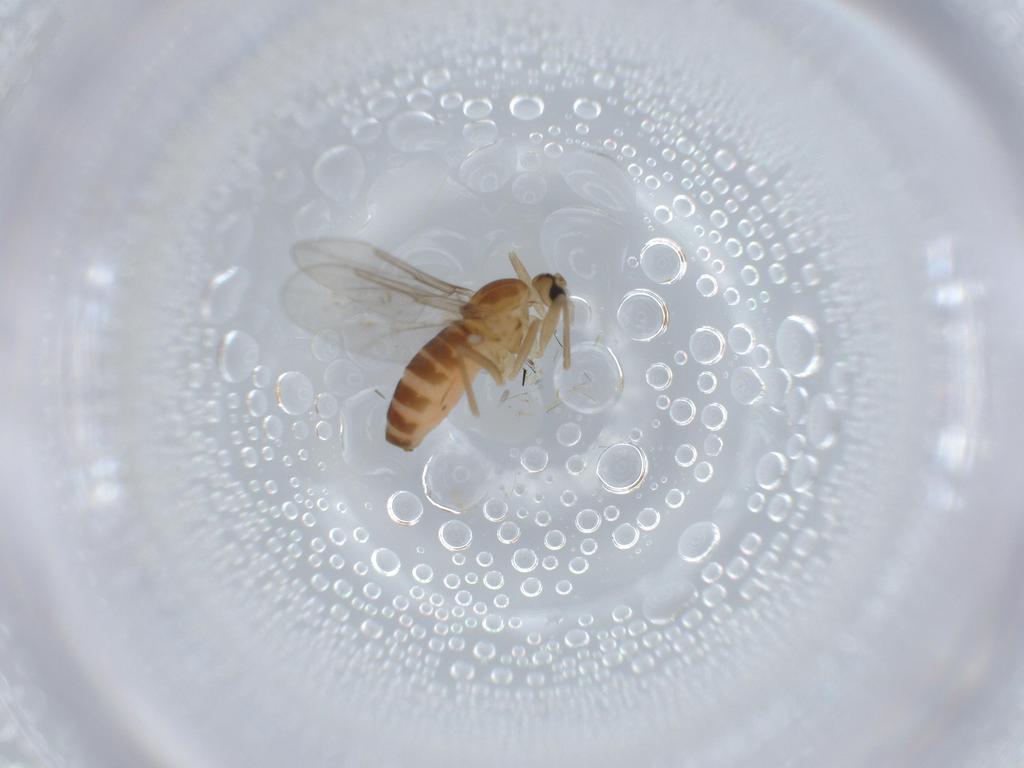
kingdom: Animalia
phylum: Arthropoda
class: Insecta
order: Diptera
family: Cecidomyiidae
